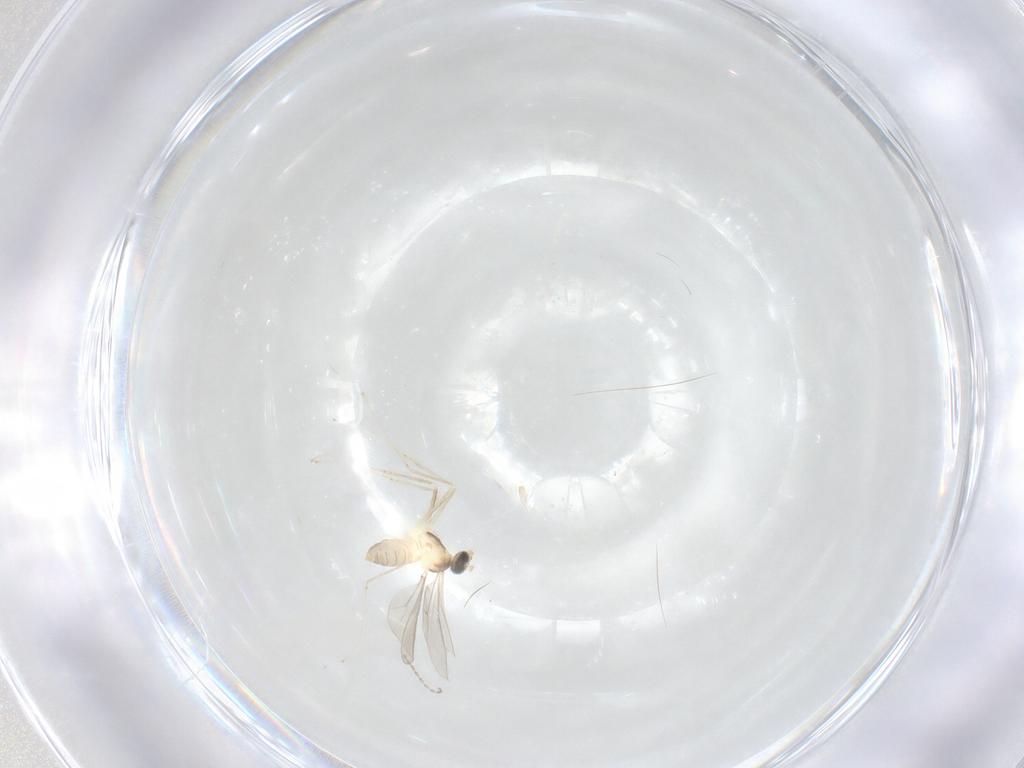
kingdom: Animalia
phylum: Arthropoda
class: Insecta
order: Diptera
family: Cecidomyiidae
